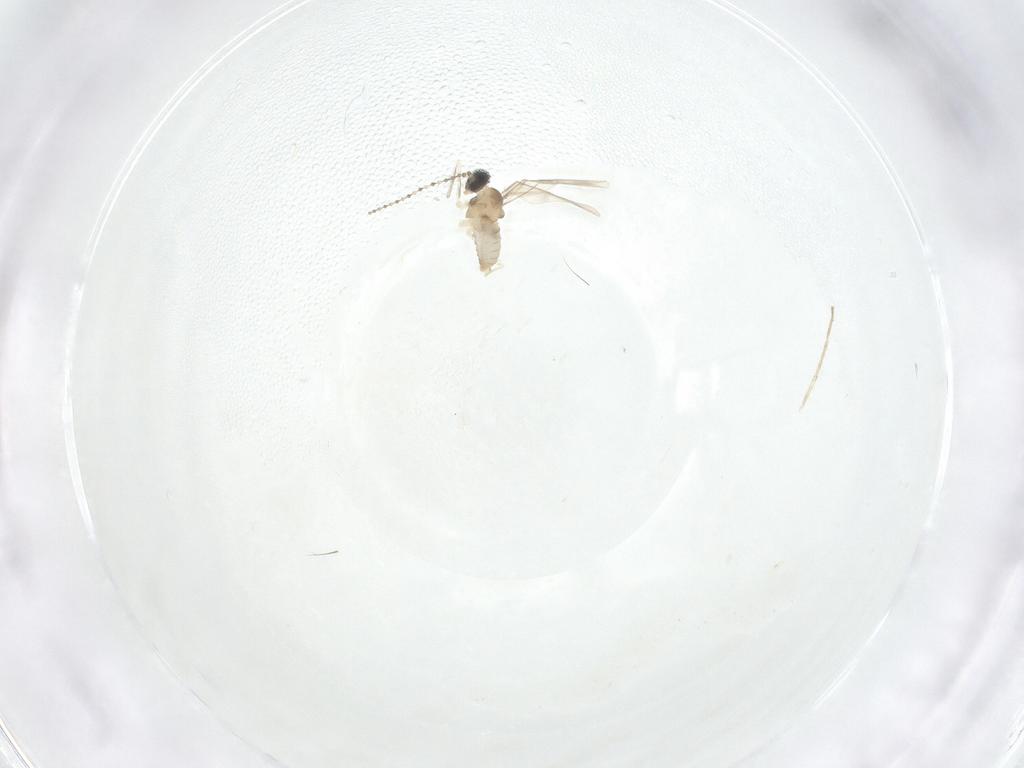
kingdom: Animalia
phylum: Arthropoda
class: Insecta
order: Diptera
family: Cecidomyiidae
